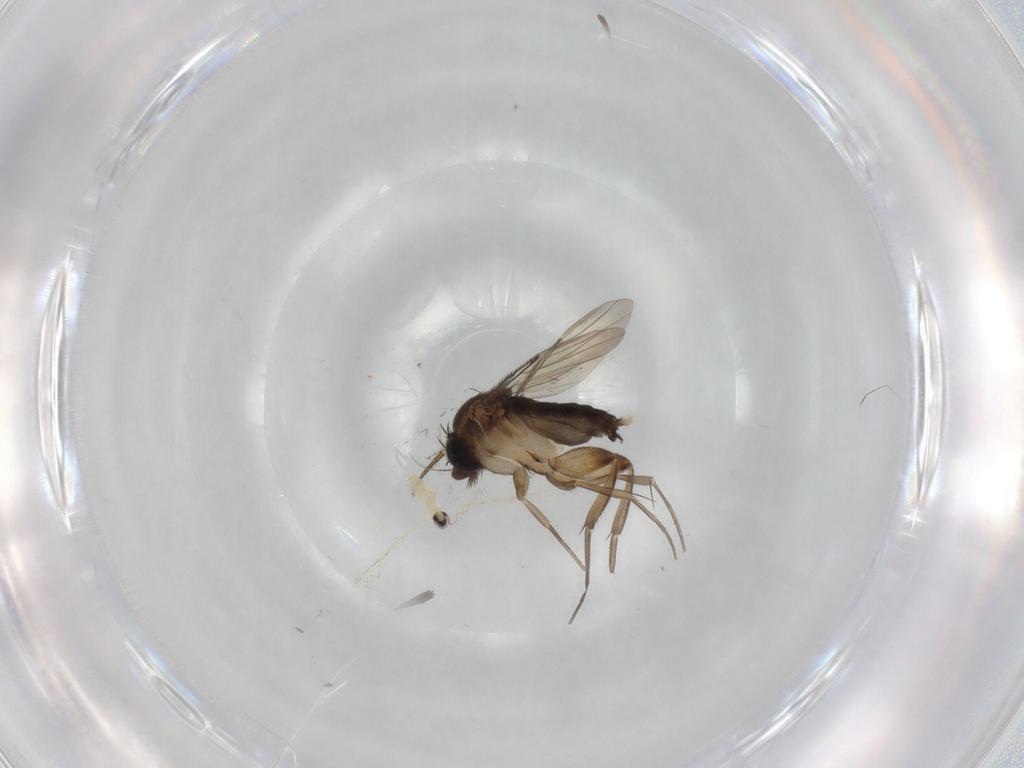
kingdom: Animalia
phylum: Arthropoda
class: Insecta
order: Diptera
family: Phoridae
